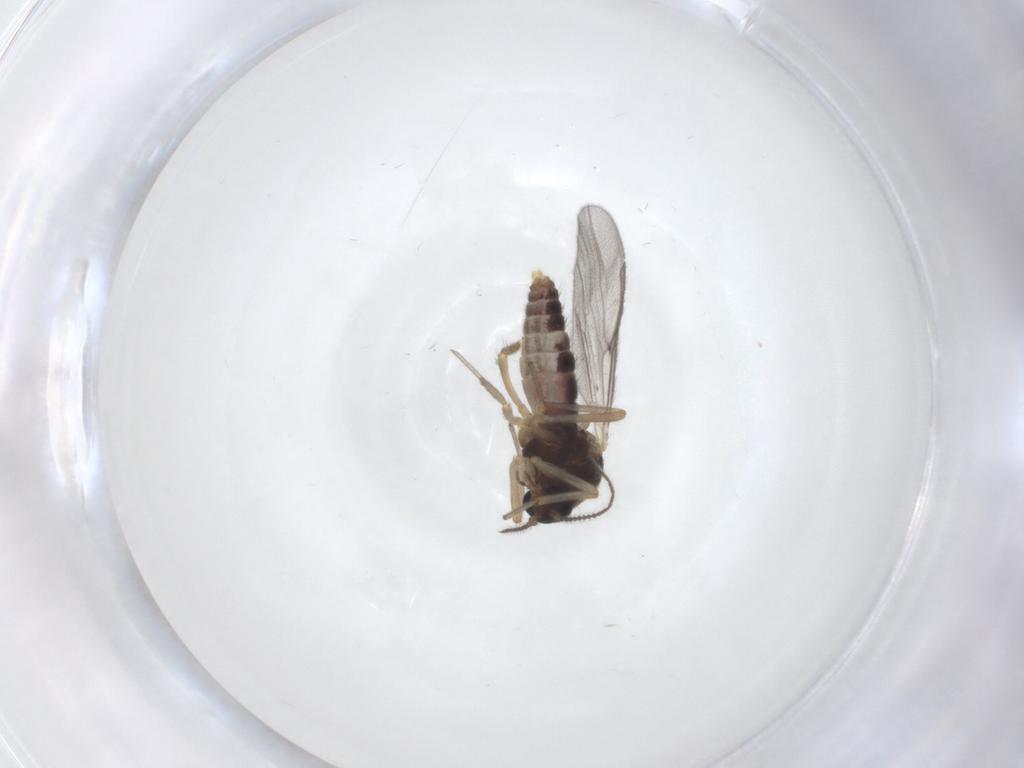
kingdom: Animalia
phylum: Arthropoda
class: Insecta
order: Diptera
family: Ceratopogonidae
